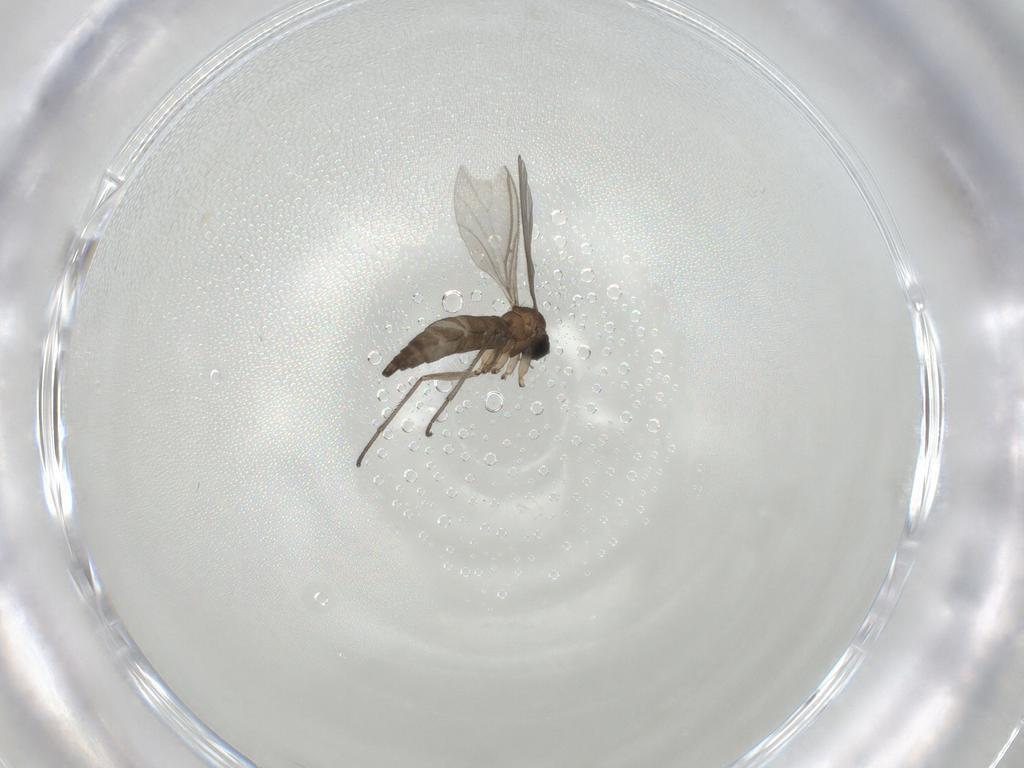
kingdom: Animalia
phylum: Arthropoda
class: Insecta
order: Diptera
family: Sciaridae
